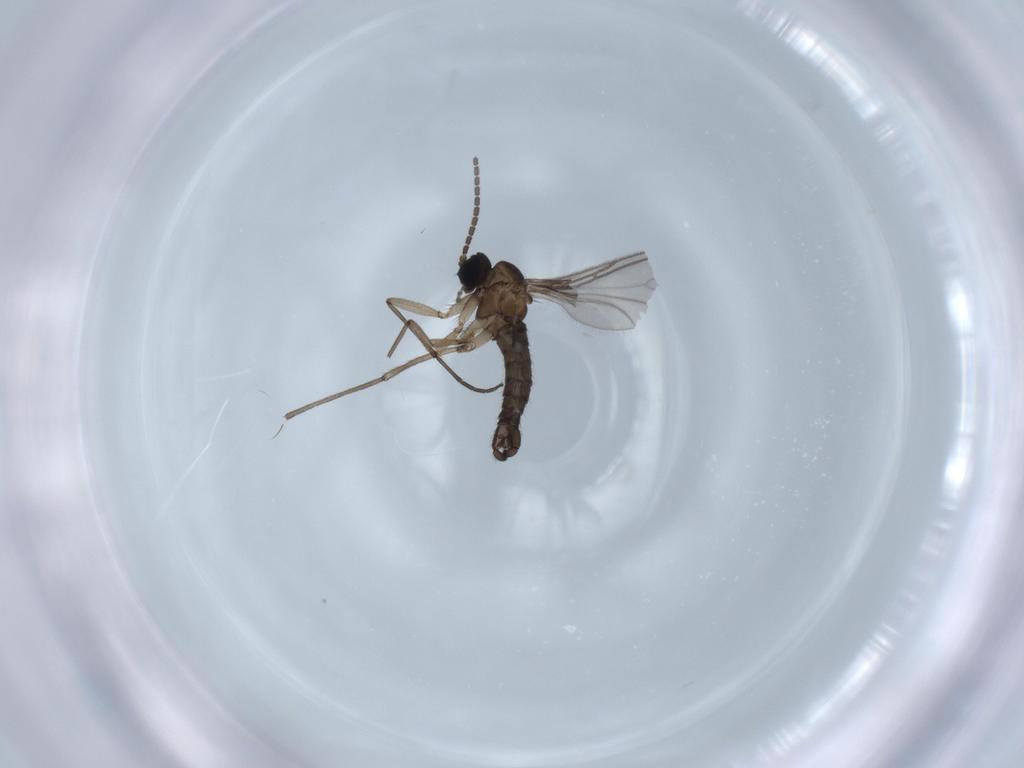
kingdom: Animalia
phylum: Arthropoda
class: Insecta
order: Diptera
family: Sciaridae
